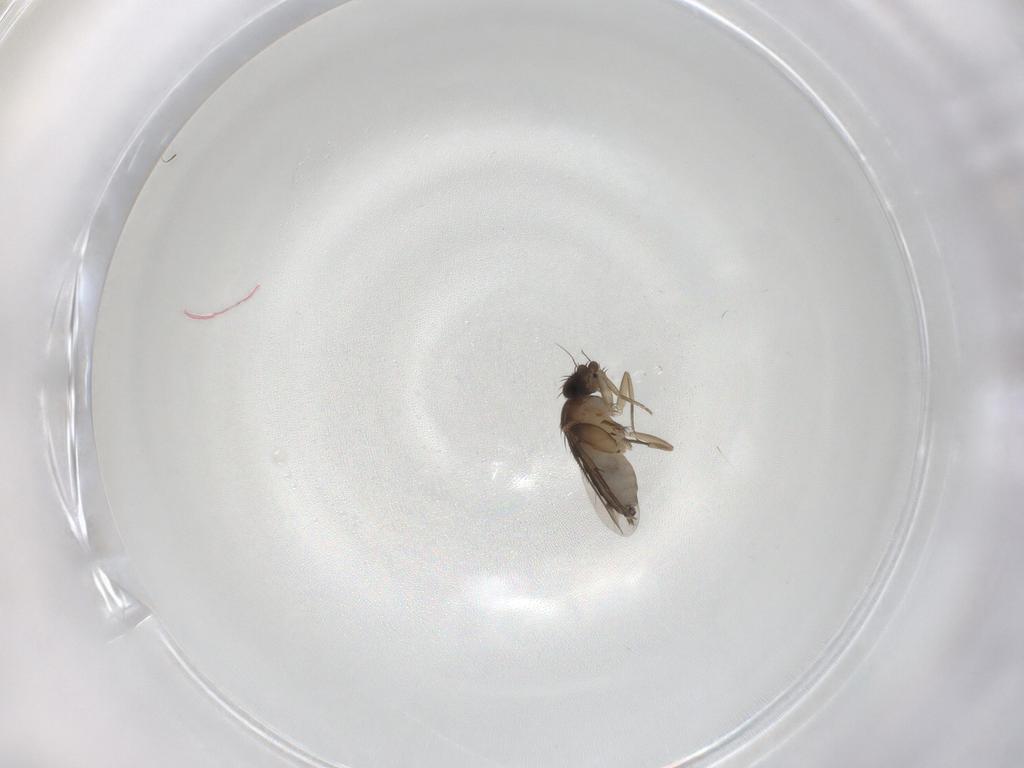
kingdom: Animalia
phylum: Arthropoda
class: Insecta
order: Diptera
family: Phoridae
